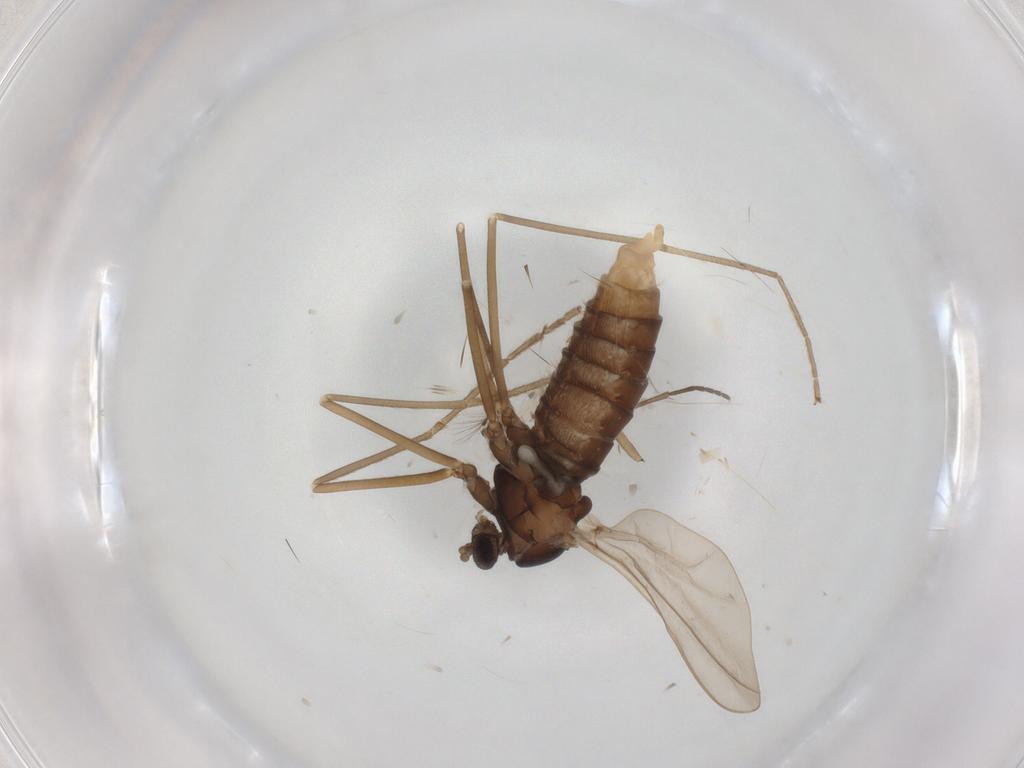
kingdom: Animalia
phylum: Arthropoda
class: Insecta
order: Diptera
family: Cecidomyiidae
